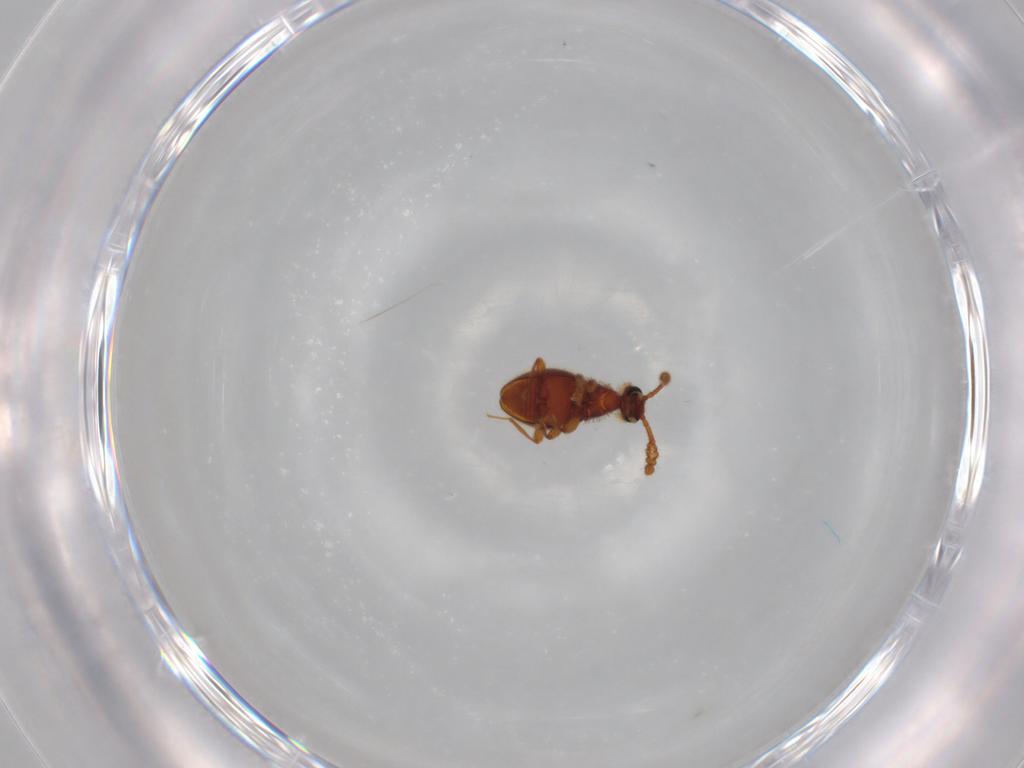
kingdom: Animalia
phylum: Arthropoda
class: Insecta
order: Coleoptera
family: Staphylinidae
